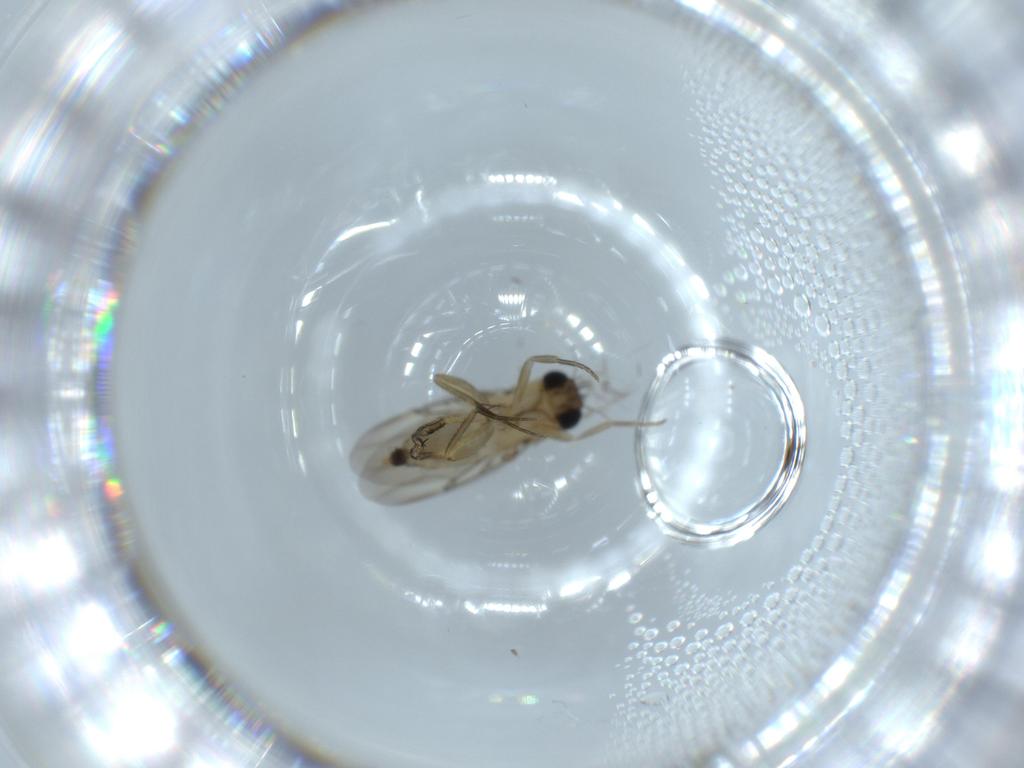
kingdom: Animalia
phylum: Arthropoda
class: Insecta
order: Diptera
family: Phoridae
